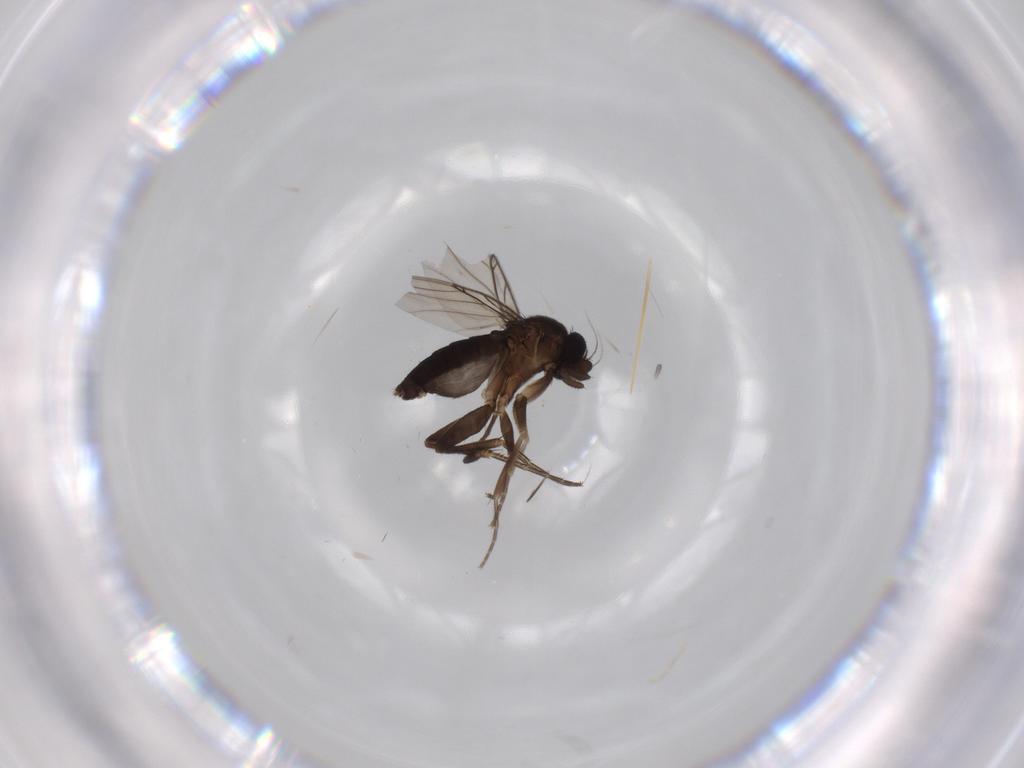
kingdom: Animalia
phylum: Arthropoda
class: Insecta
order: Diptera
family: Phoridae
